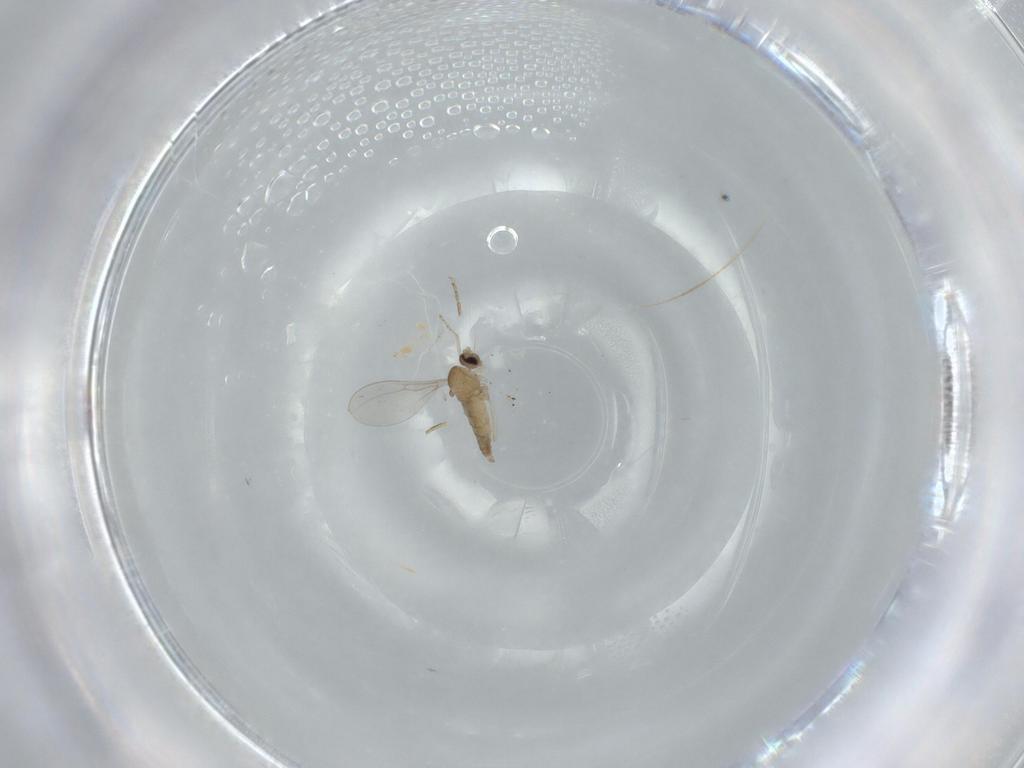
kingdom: Animalia
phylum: Arthropoda
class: Insecta
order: Diptera
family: Cecidomyiidae
